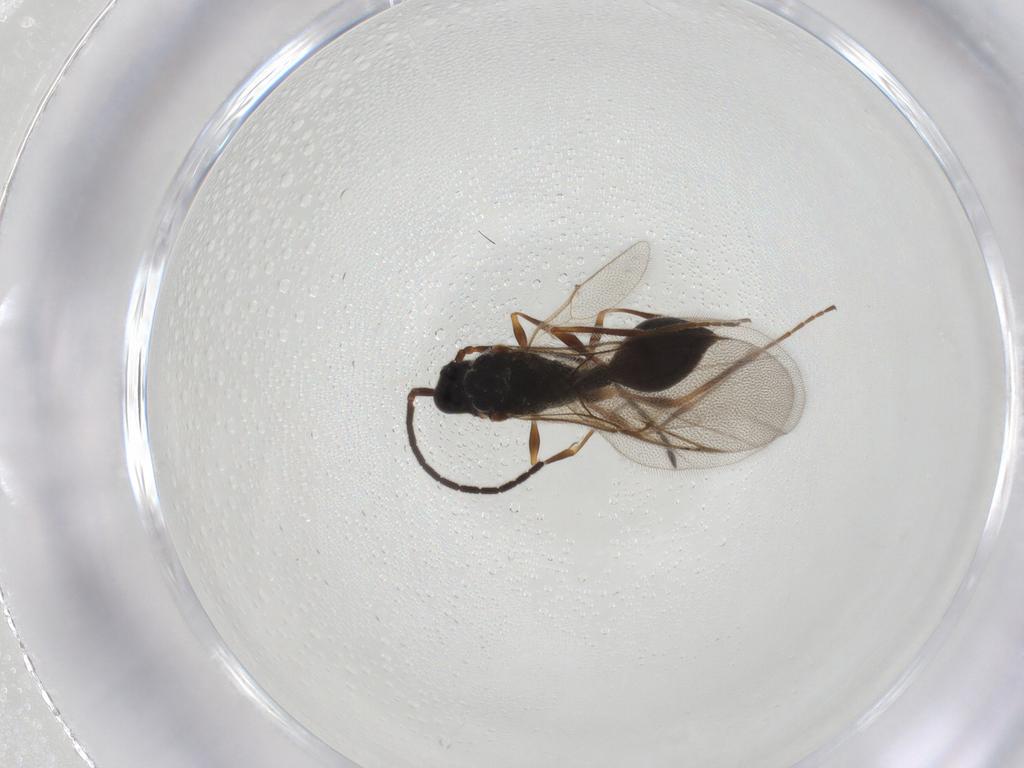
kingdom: Animalia
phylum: Arthropoda
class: Insecta
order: Hymenoptera
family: Diapriidae
